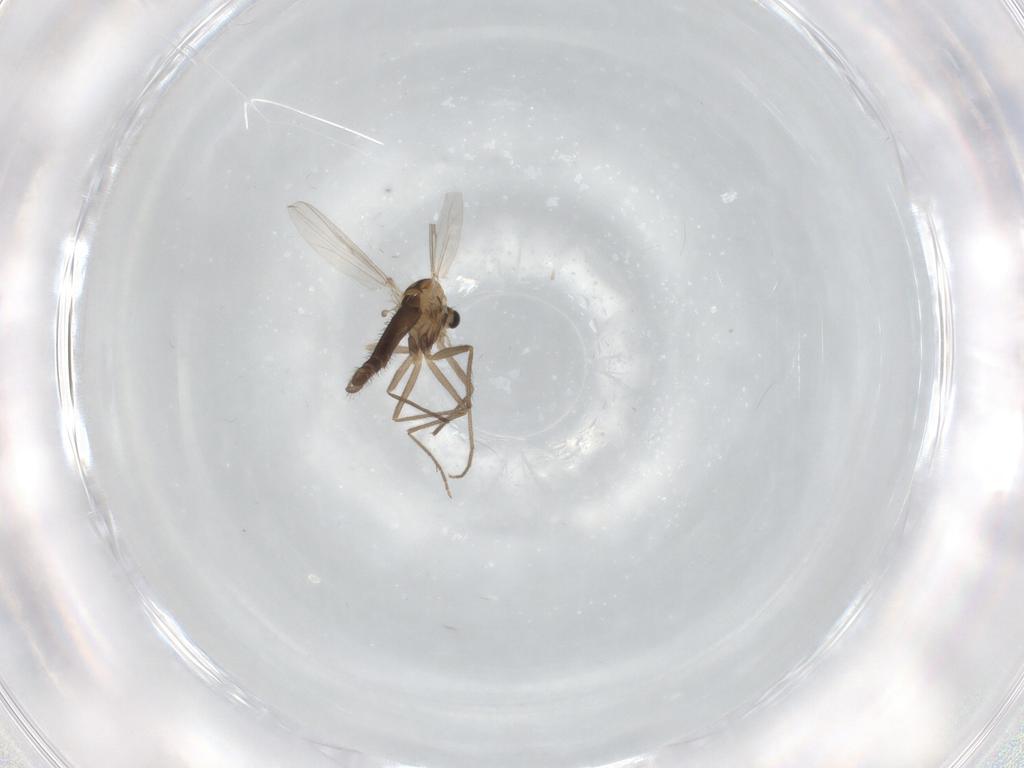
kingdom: Animalia
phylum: Arthropoda
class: Insecta
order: Diptera
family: Chironomidae
